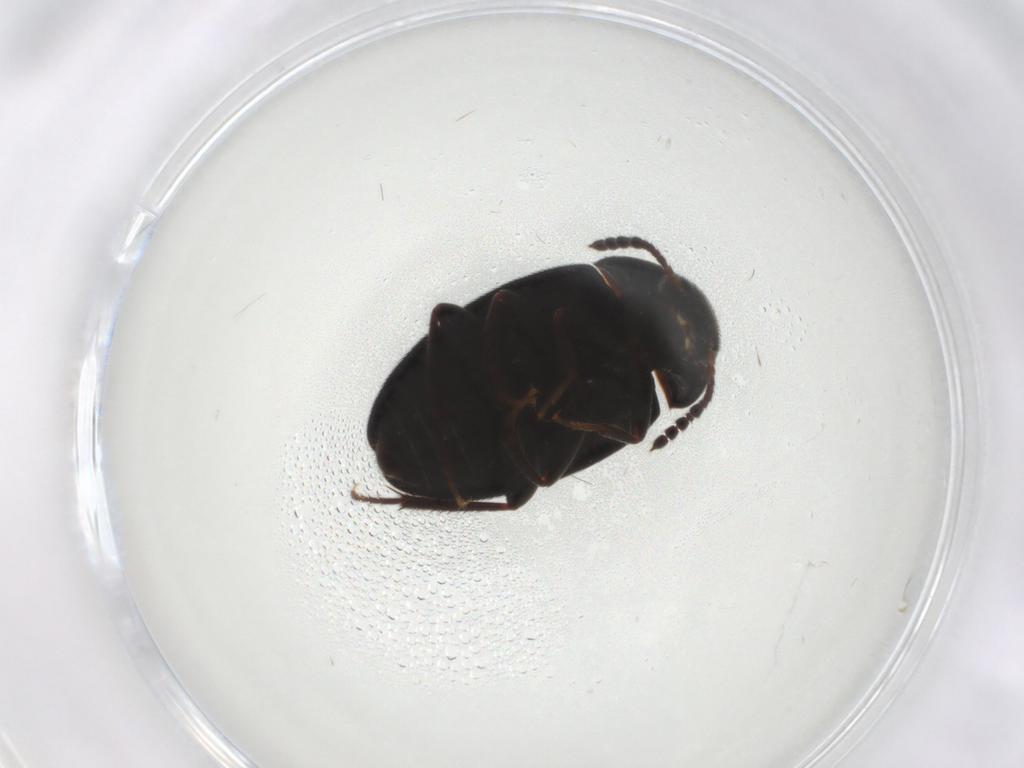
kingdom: Animalia
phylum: Arthropoda
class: Insecta
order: Coleoptera
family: Leiodidae
